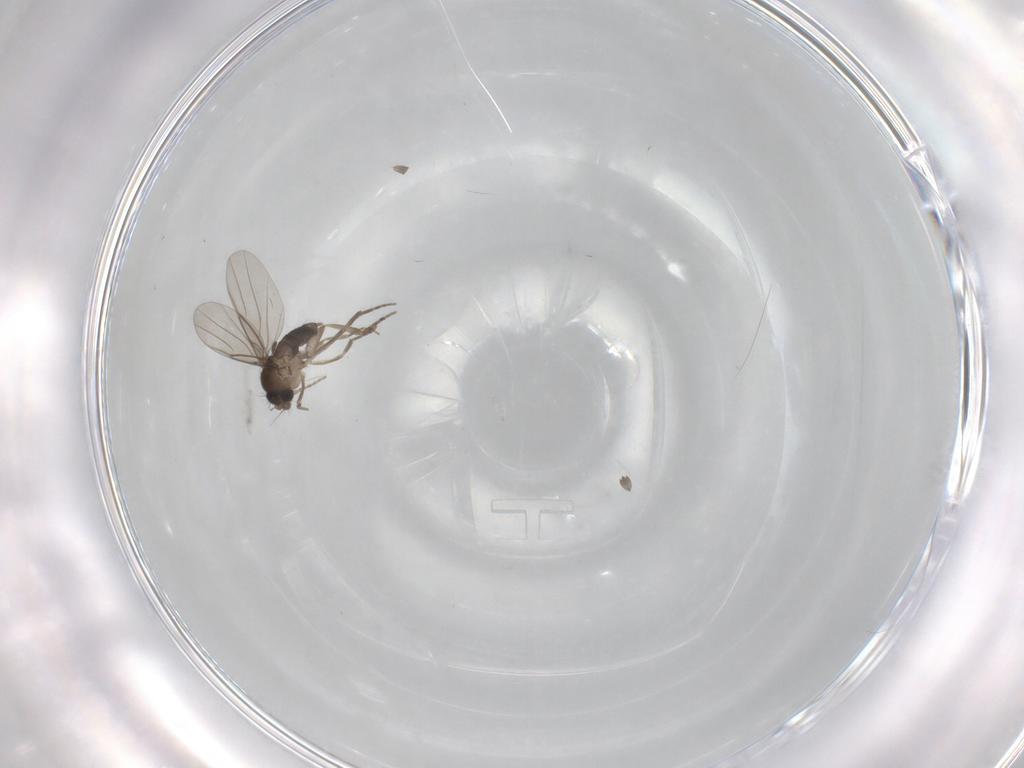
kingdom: Animalia
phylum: Arthropoda
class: Insecta
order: Diptera
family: Phoridae
